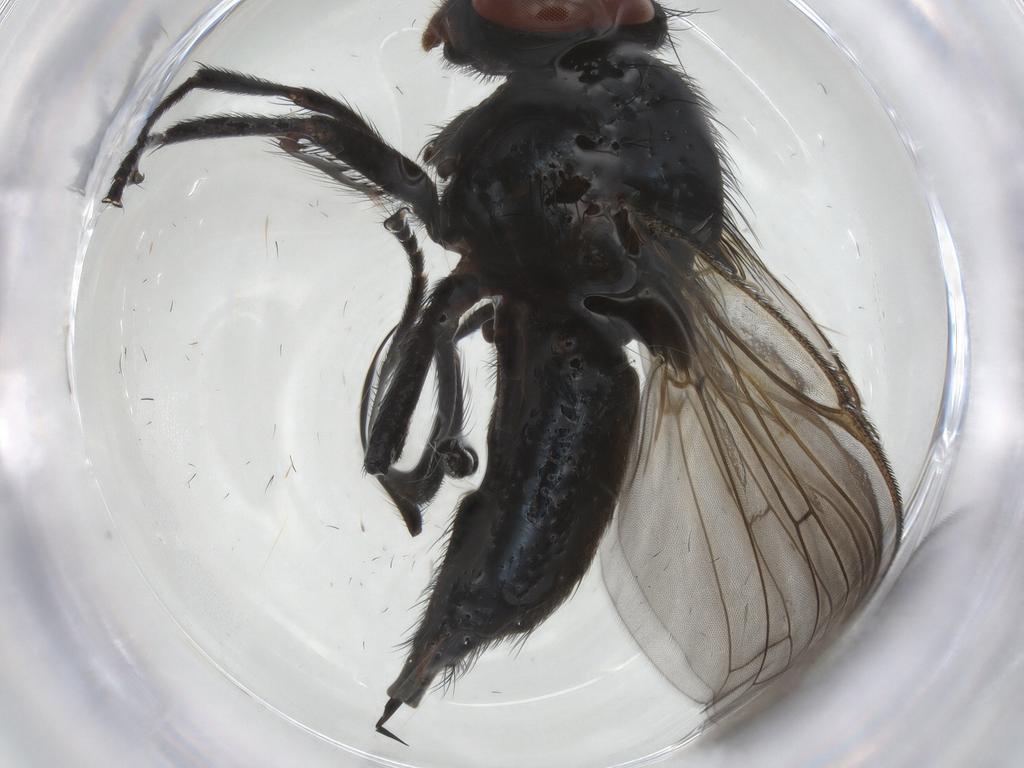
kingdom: Animalia
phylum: Arthropoda
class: Insecta
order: Diptera
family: Lonchaeidae
